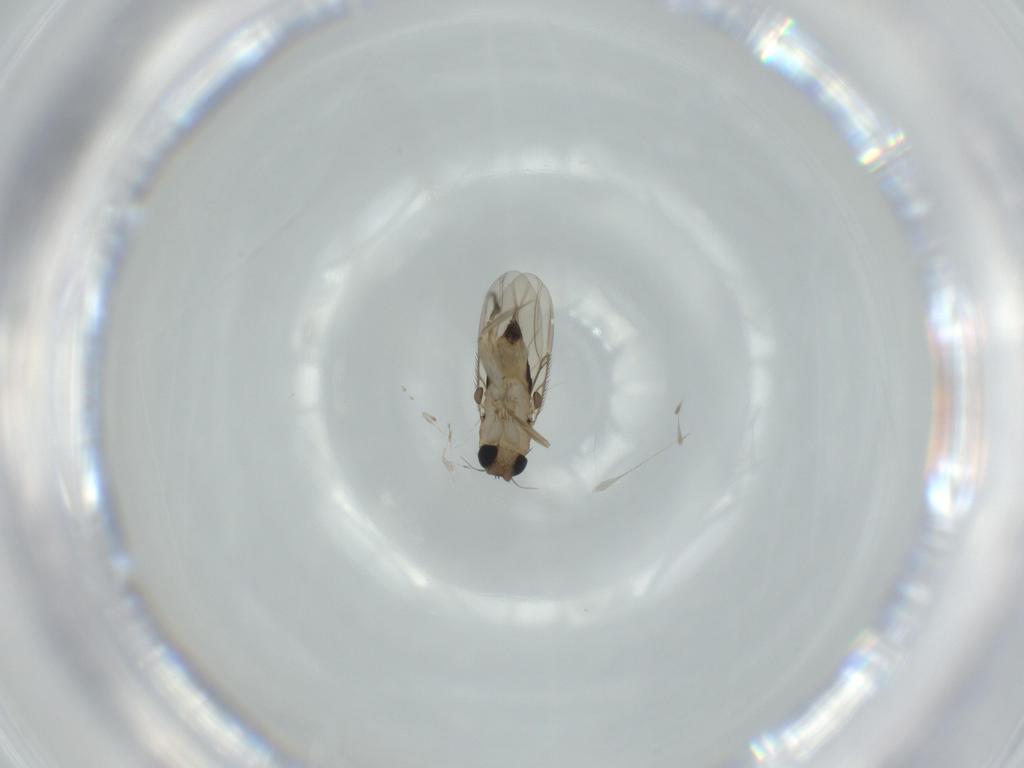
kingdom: Animalia
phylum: Arthropoda
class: Insecta
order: Diptera
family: Phoridae
